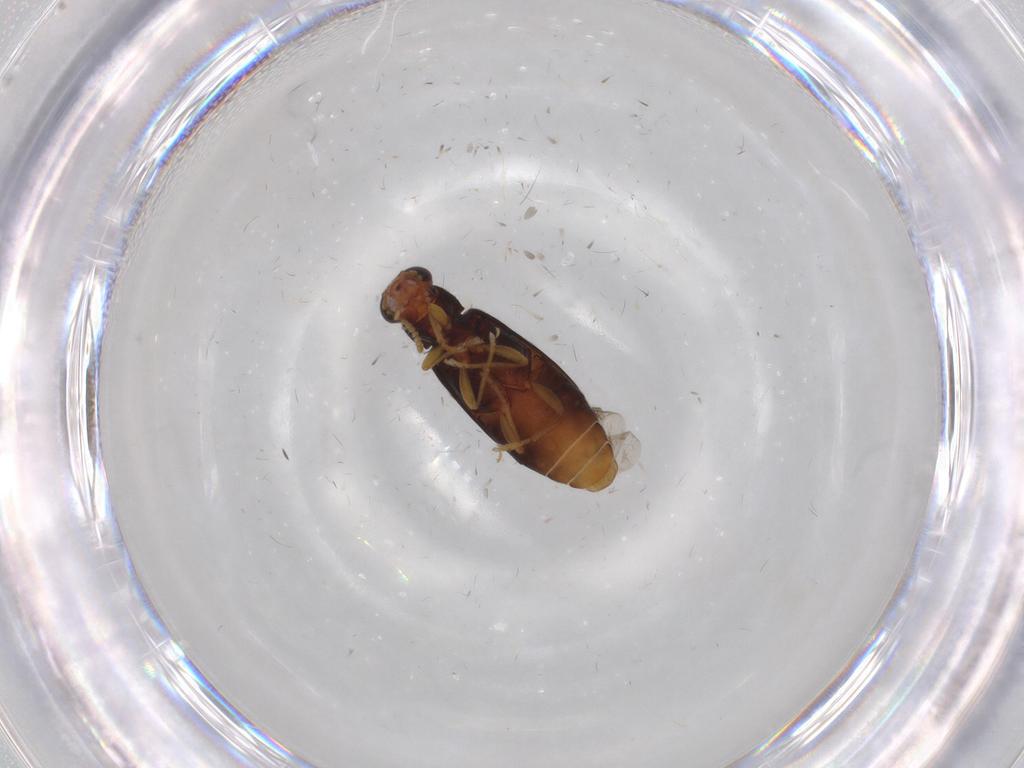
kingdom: Animalia
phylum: Arthropoda
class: Insecta
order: Coleoptera
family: Mycteridae
